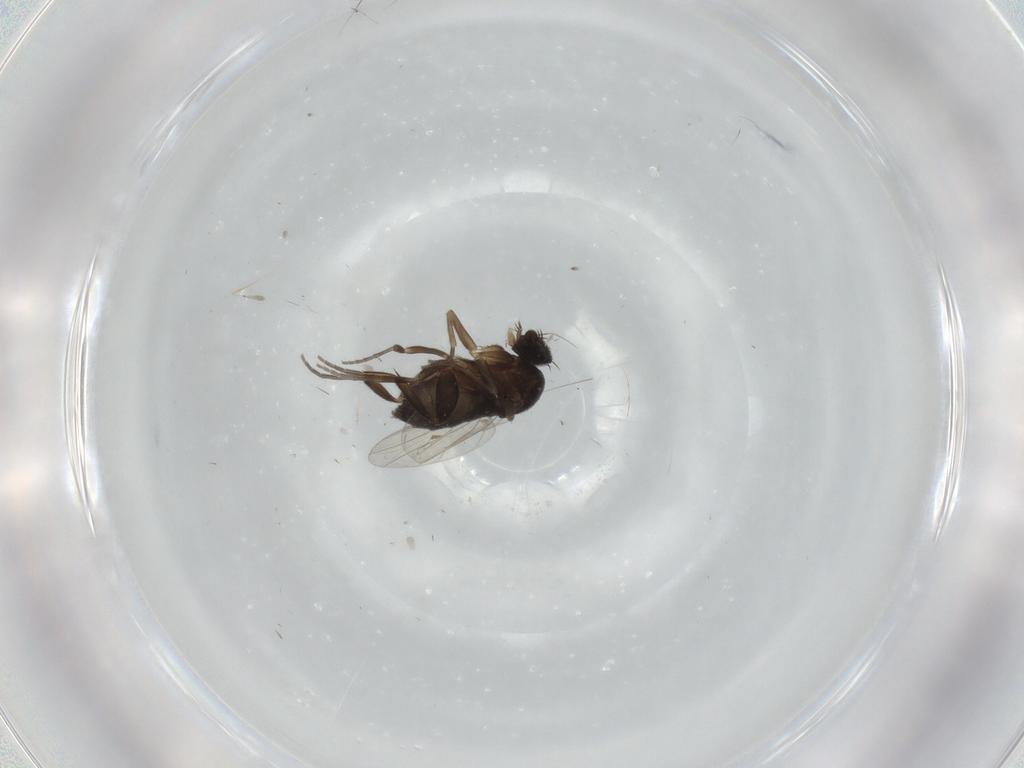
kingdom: Animalia
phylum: Arthropoda
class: Insecta
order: Diptera
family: Phoridae
